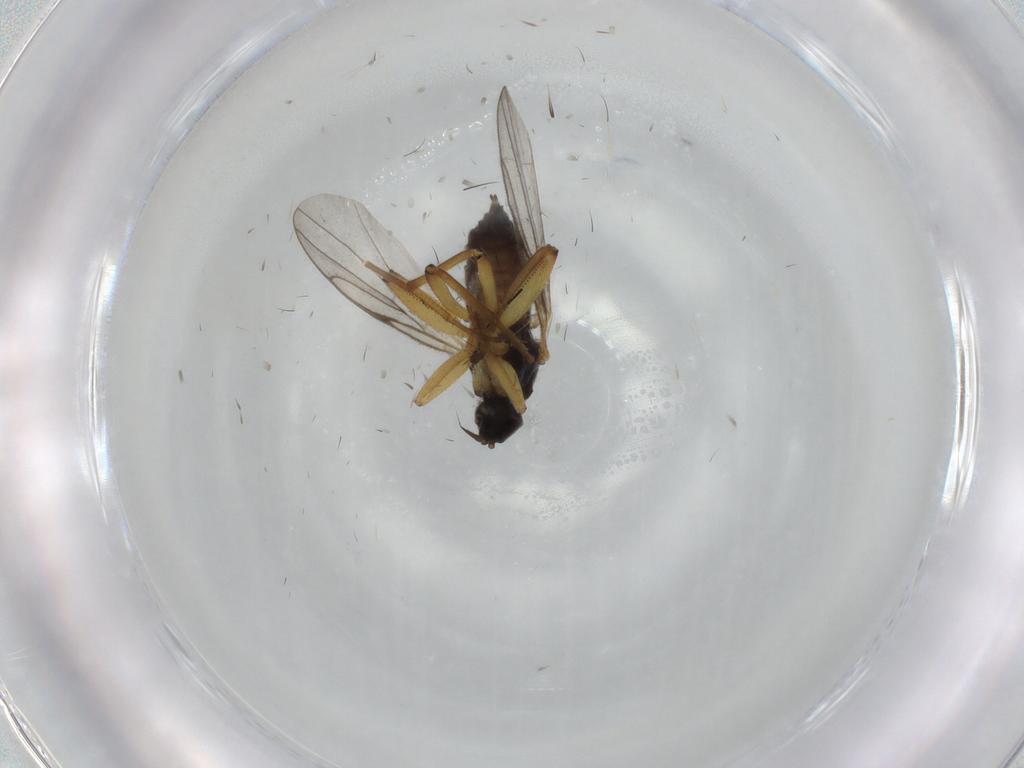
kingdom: Animalia
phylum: Arthropoda
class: Insecta
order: Diptera
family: Hybotidae
